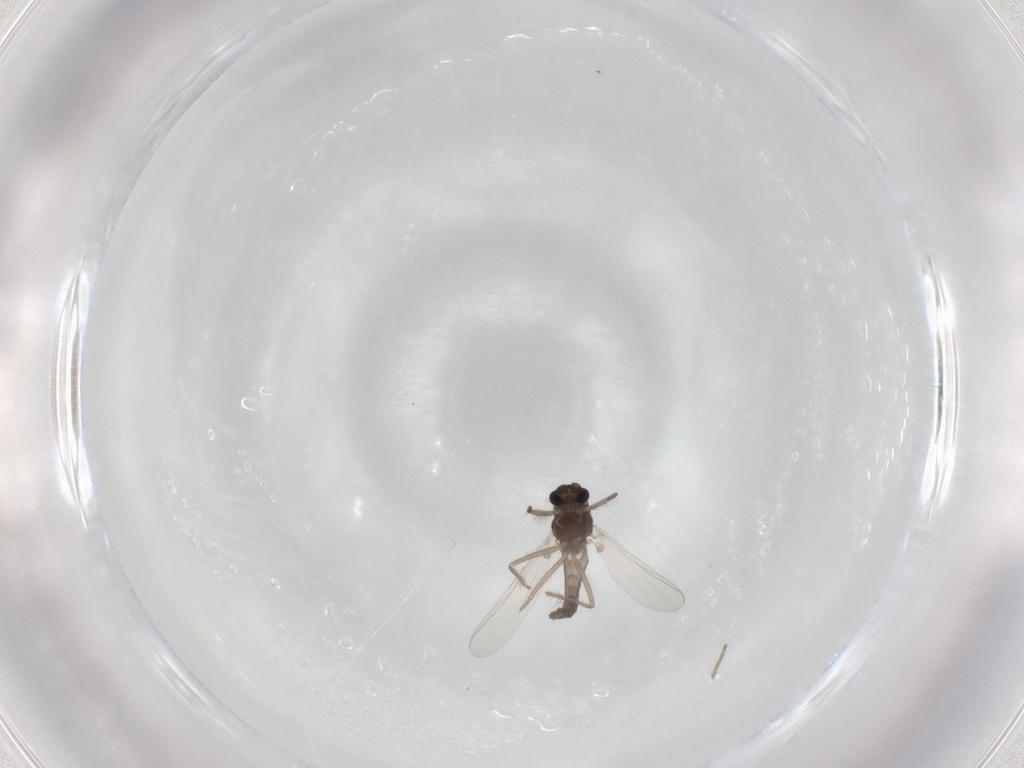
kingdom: Animalia
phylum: Arthropoda
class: Insecta
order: Diptera
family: Chironomidae
